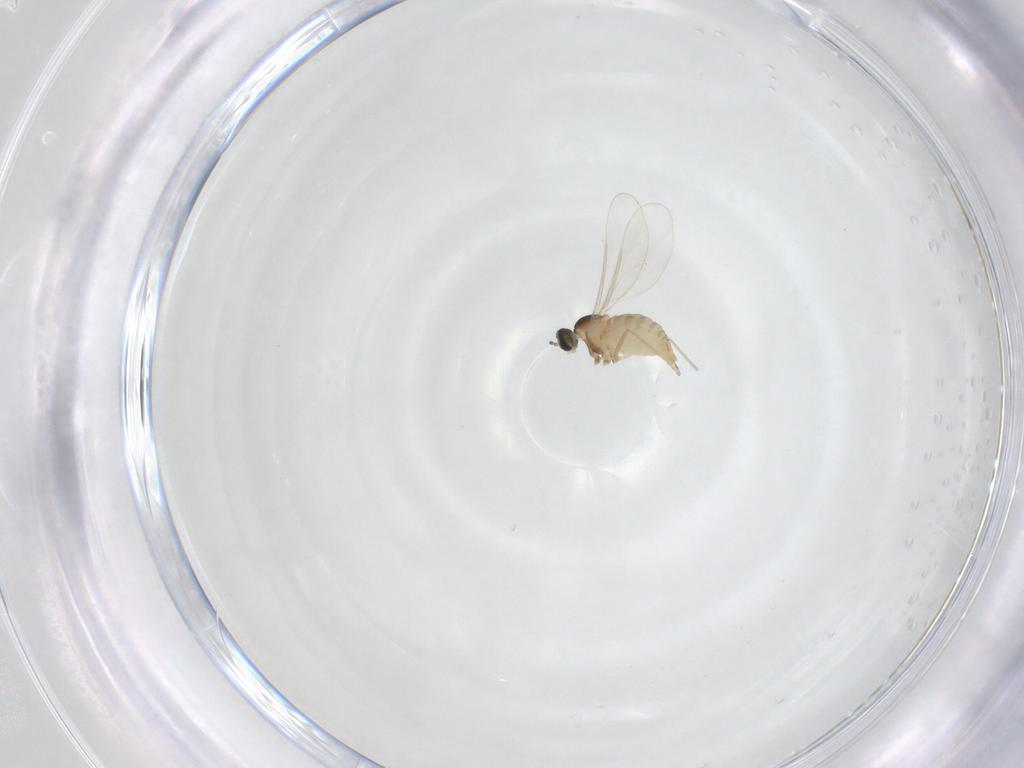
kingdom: Animalia
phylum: Arthropoda
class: Insecta
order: Diptera
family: Cecidomyiidae
